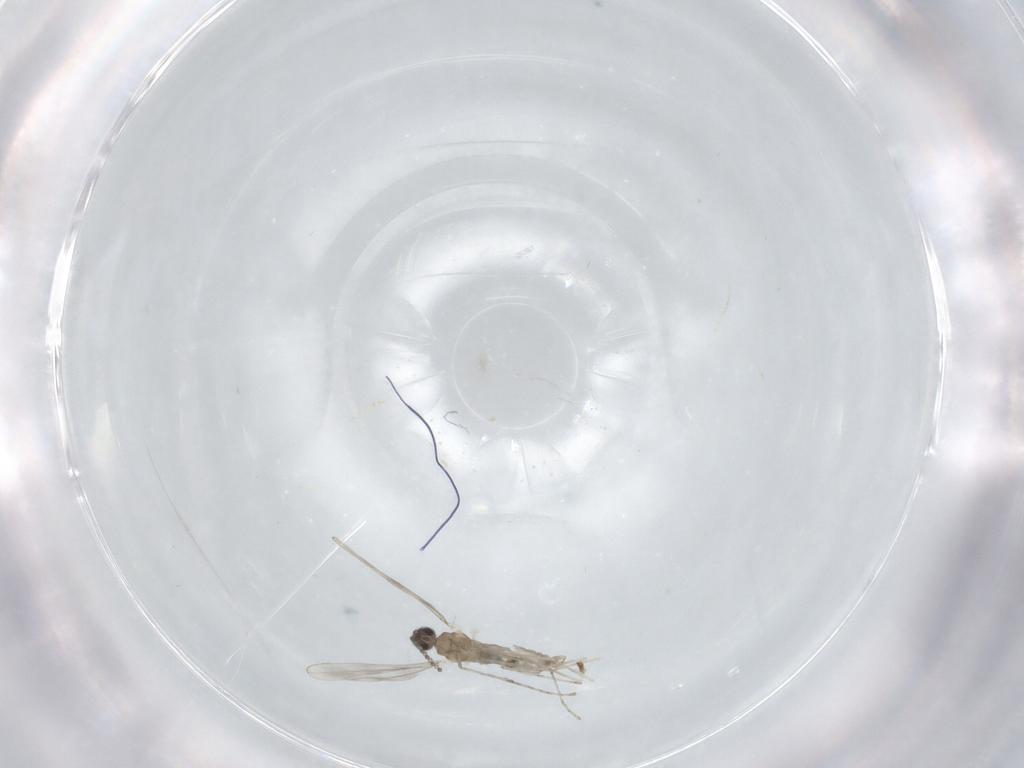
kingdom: Animalia
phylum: Arthropoda
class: Insecta
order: Diptera
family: Cecidomyiidae
